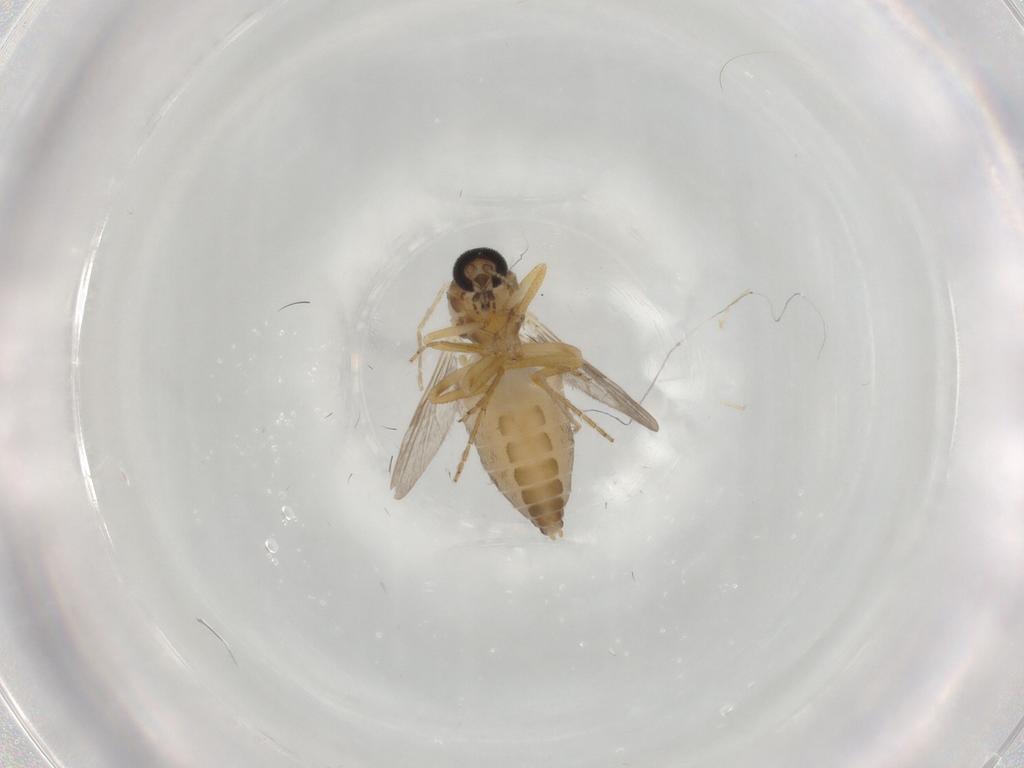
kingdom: Animalia
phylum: Arthropoda
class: Insecta
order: Diptera
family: Ceratopogonidae
